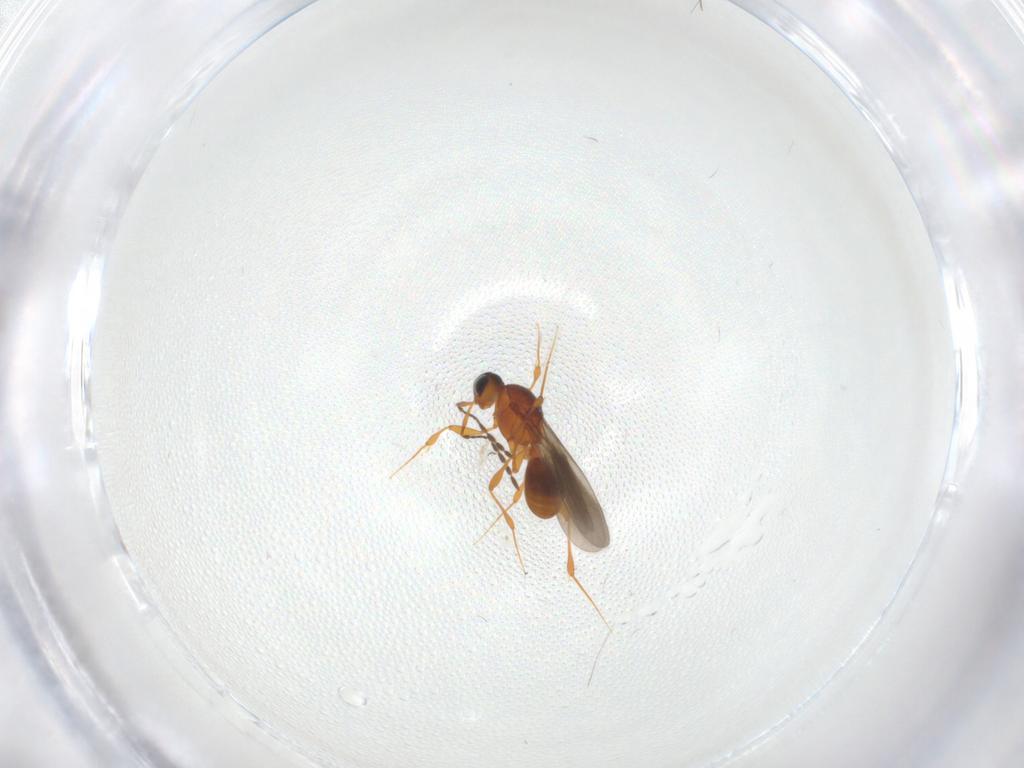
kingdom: Animalia
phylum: Arthropoda
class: Insecta
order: Hymenoptera
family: Platygastridae
